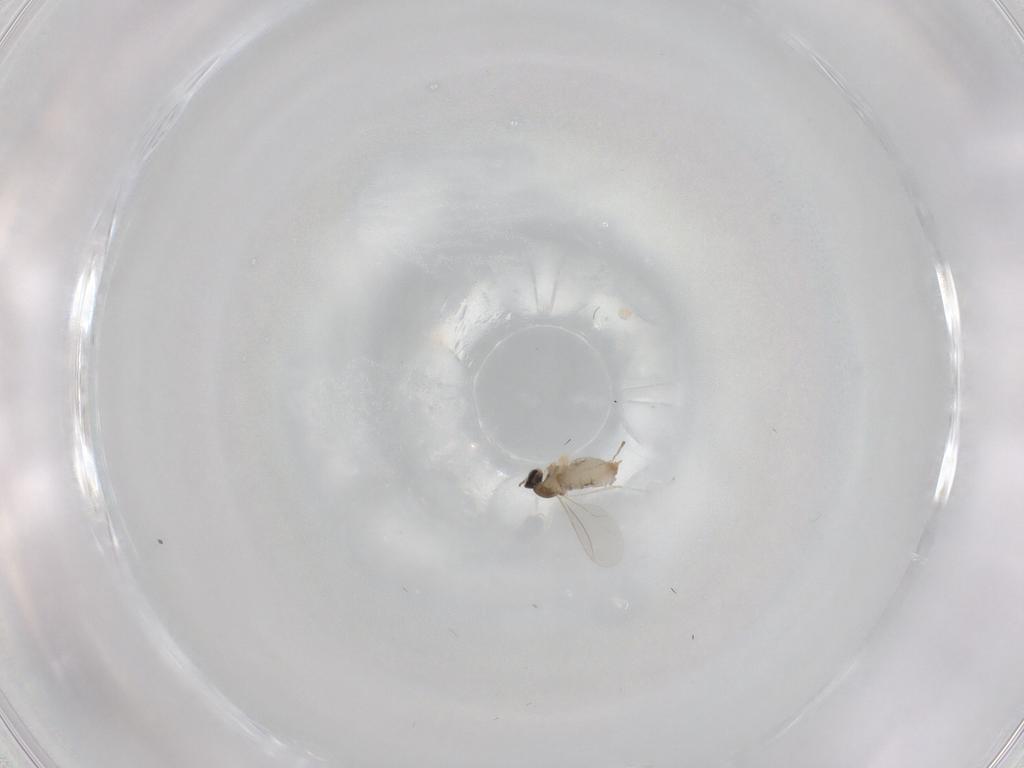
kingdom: Animalia
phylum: Arthropoda
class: Insecta
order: Diptera
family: Cecidomyiidae
